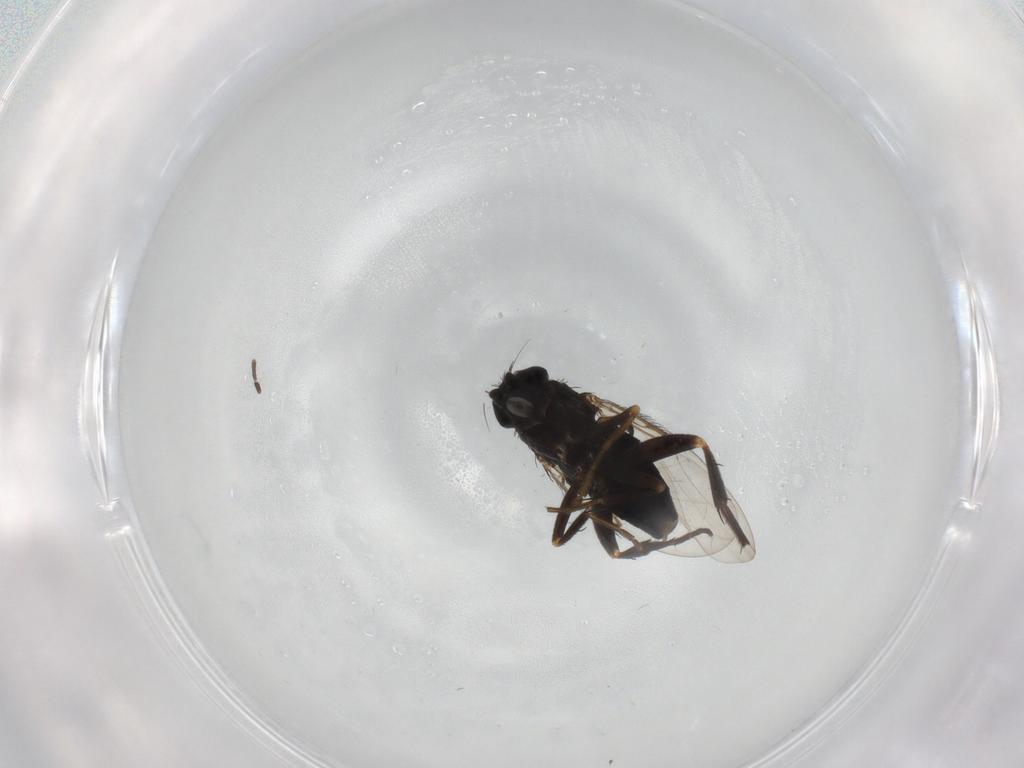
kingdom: Animalia
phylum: Arthropoda
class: Insecta
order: Diptera
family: Phoridae
